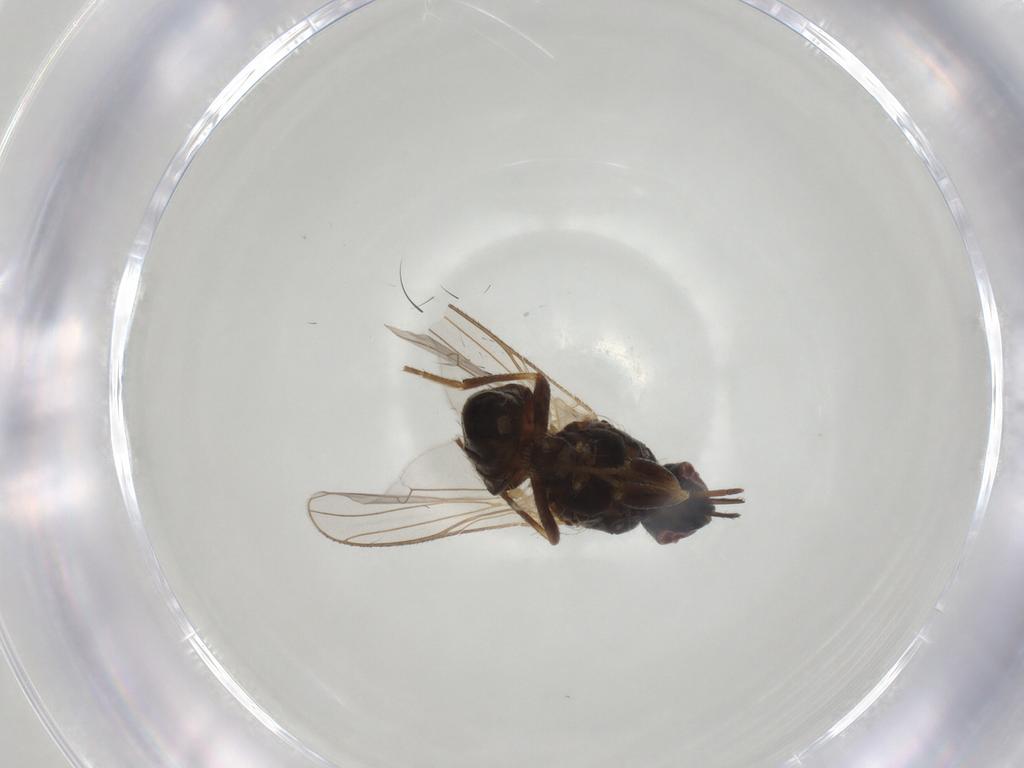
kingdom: Animalia
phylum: Arthropoda
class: Insecta
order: Diptera
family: Muscidae
